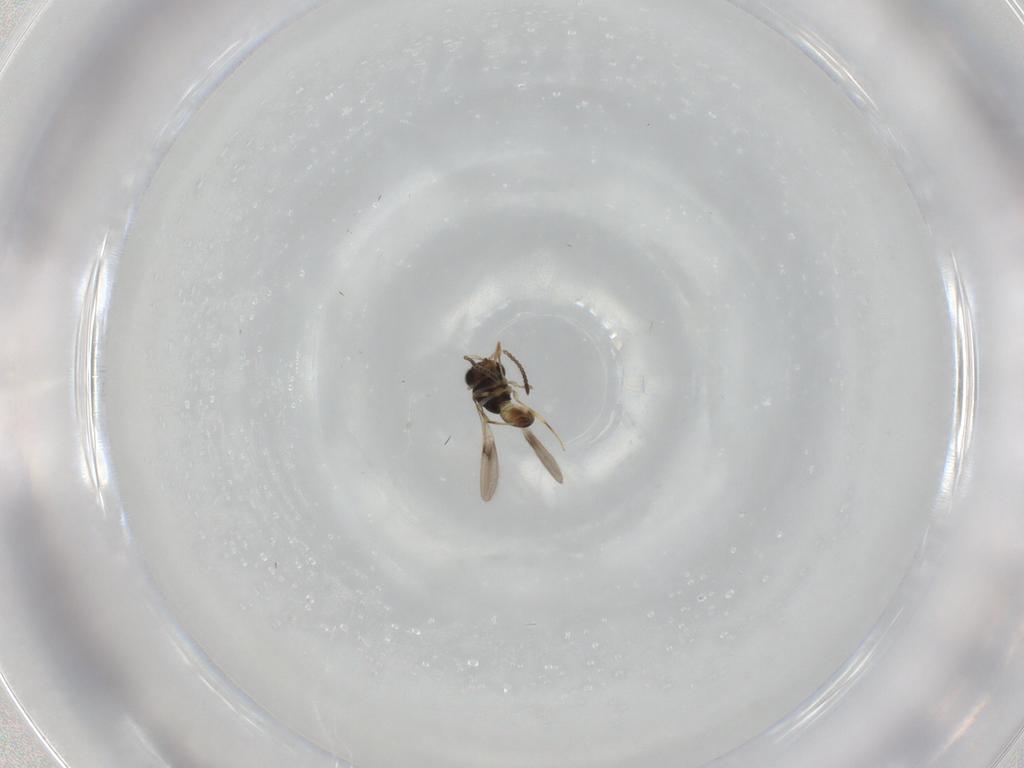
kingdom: Animalia
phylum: Arthropoda
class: Insecta
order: Hymenoptera
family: Scelionidae
